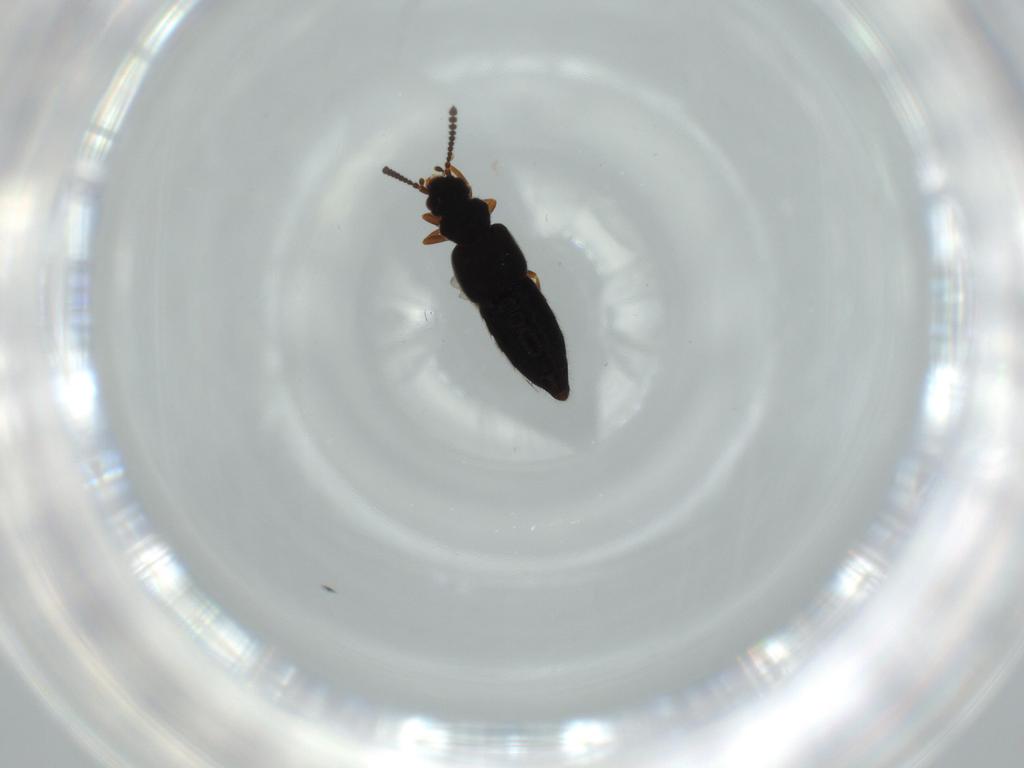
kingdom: Animalia
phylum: Arthropoda
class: Insecta
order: Coleoptera
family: Staphylinidae
